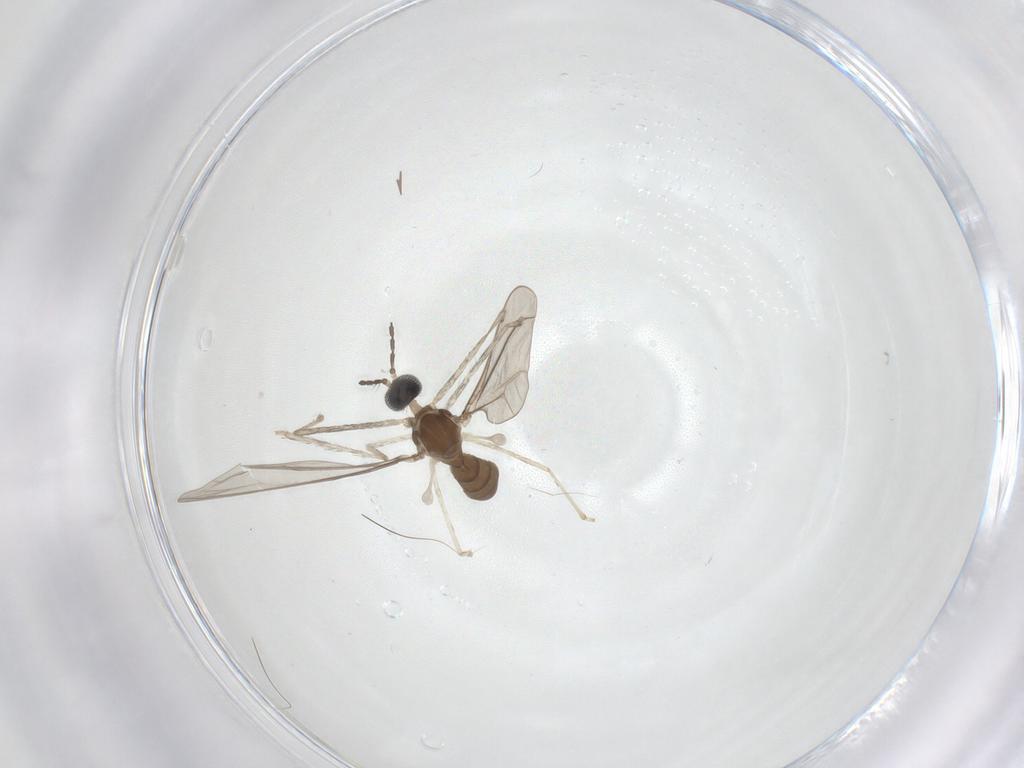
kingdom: Animalia
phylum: Arthropoda
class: Insecta
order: Diptera
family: Cecidomyiidae
